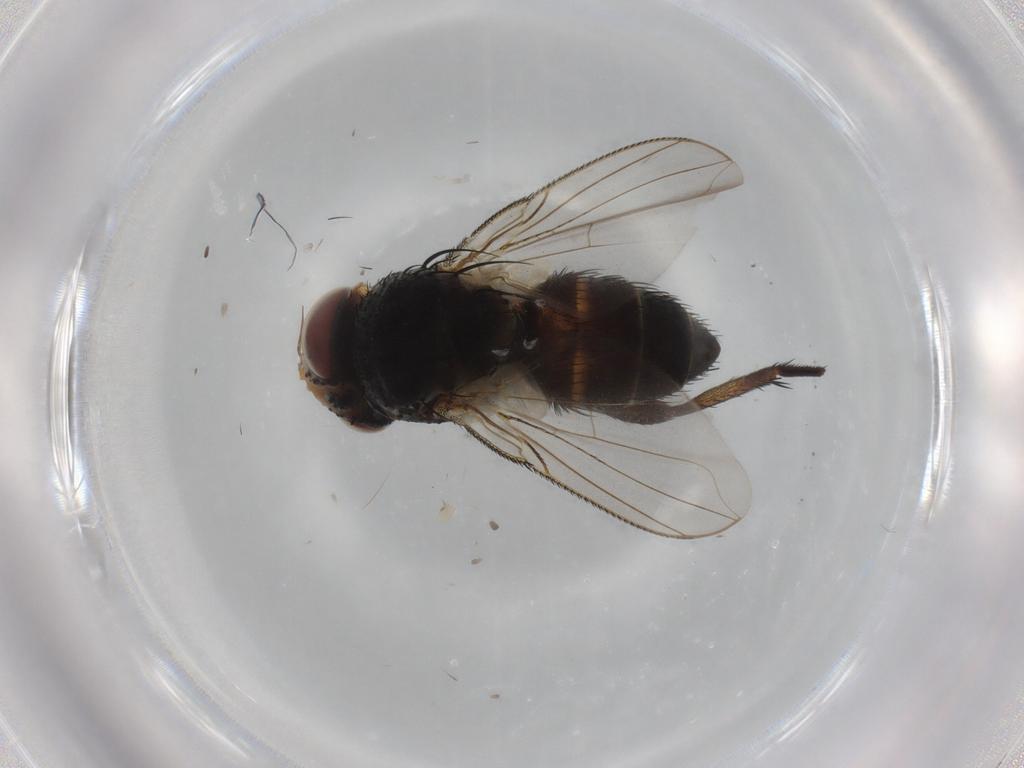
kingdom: Animalia
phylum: Arthropoda
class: Insecta
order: Diptera
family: Glossinidae
